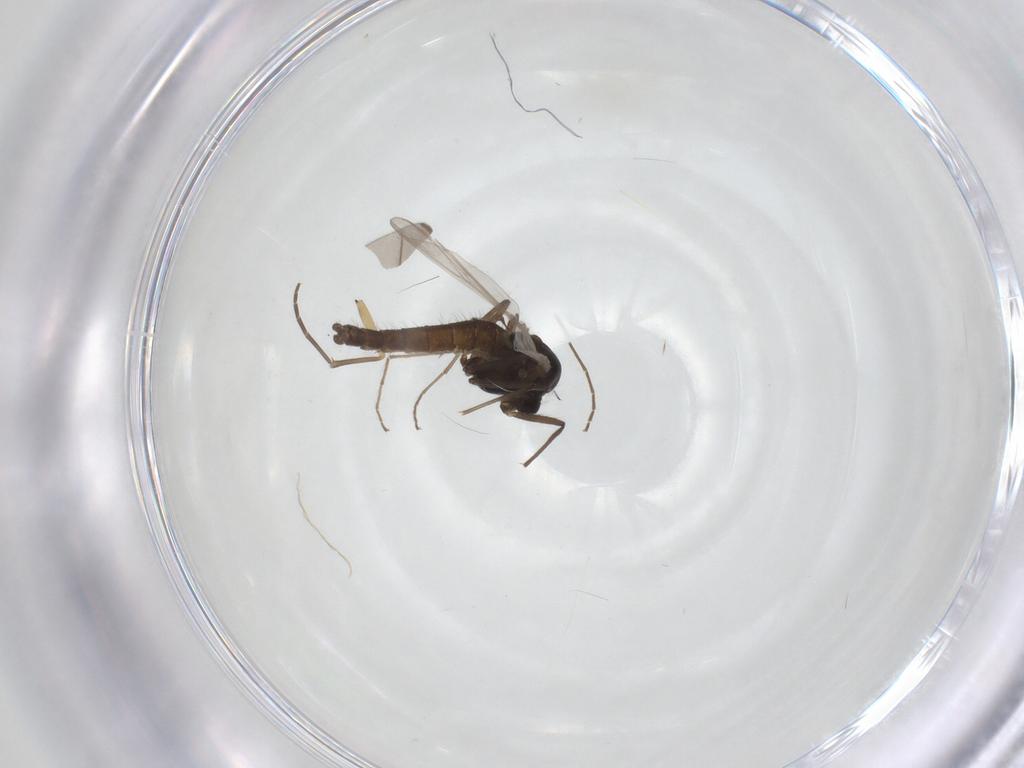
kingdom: Animalia
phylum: Arthropoda
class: Insecta
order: Diptera
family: Chironomidae
